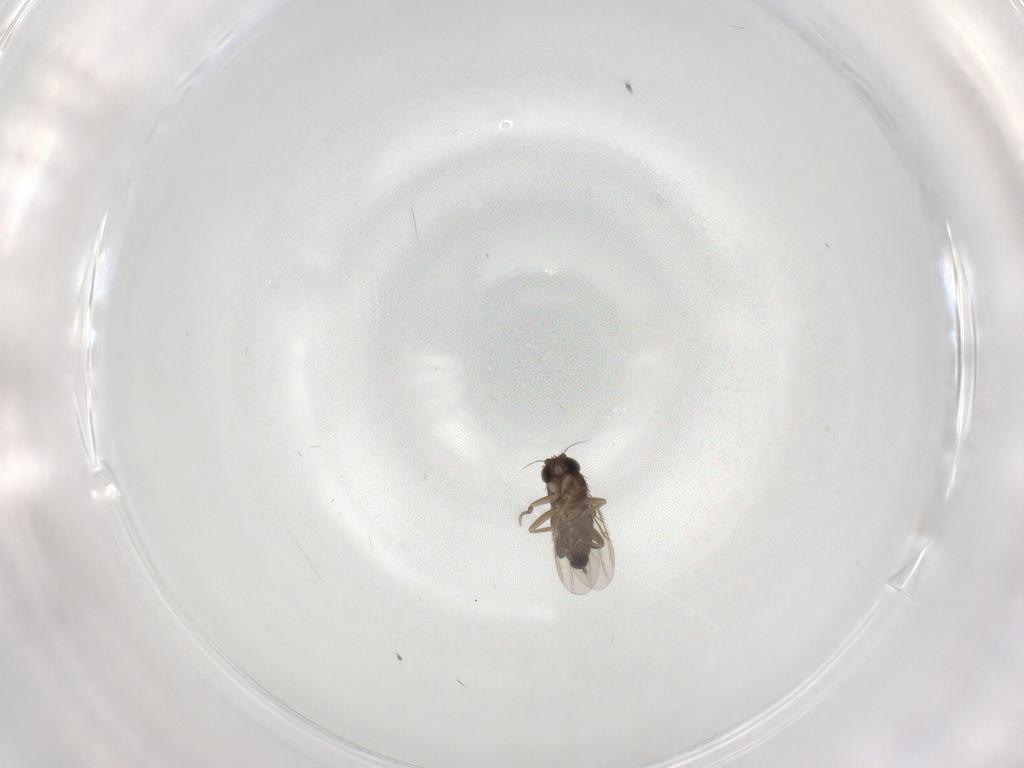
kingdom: Animalia
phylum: Arthropoda
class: Insecta
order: Diptera
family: Phoridae
